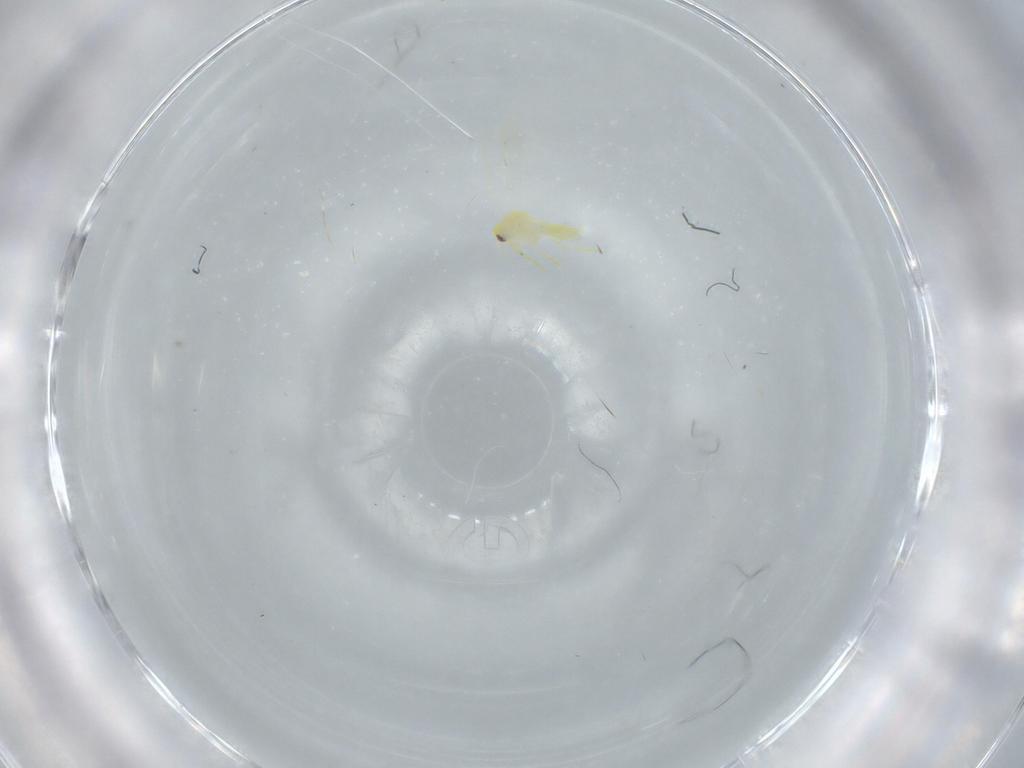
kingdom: Animalia
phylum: Arthropoda
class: Insecta
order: Hemiptera
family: Aleyrodidae
